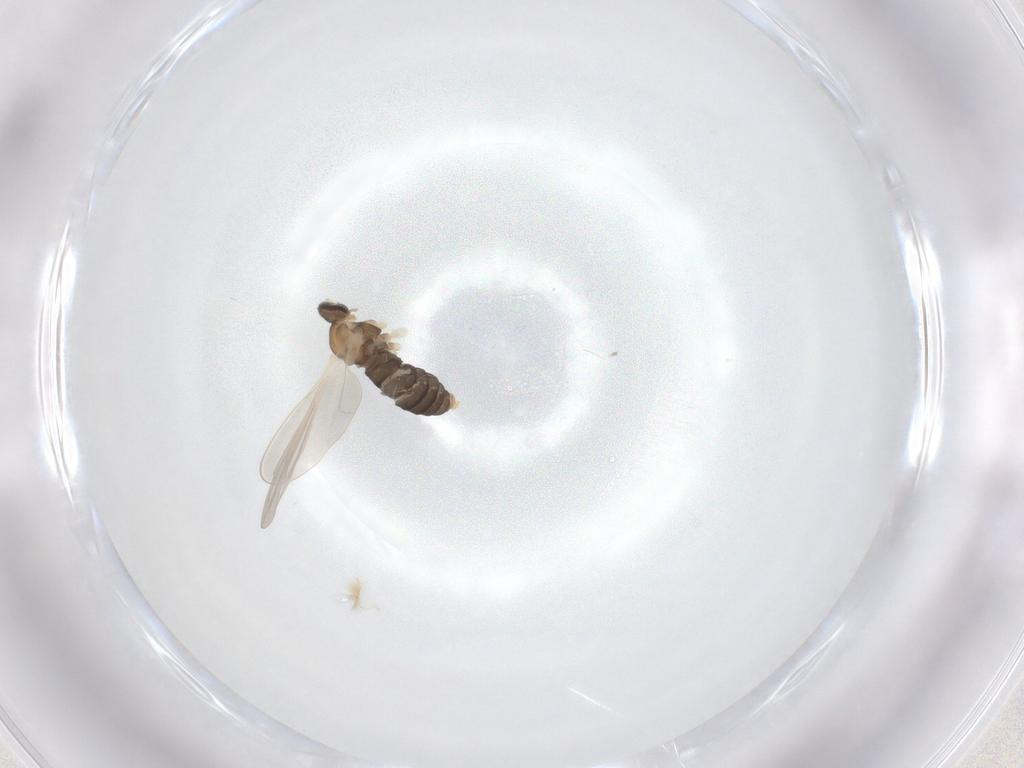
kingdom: Animalia
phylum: Arthropoda
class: Insecta
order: Diptera
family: Cecidomyiidae
